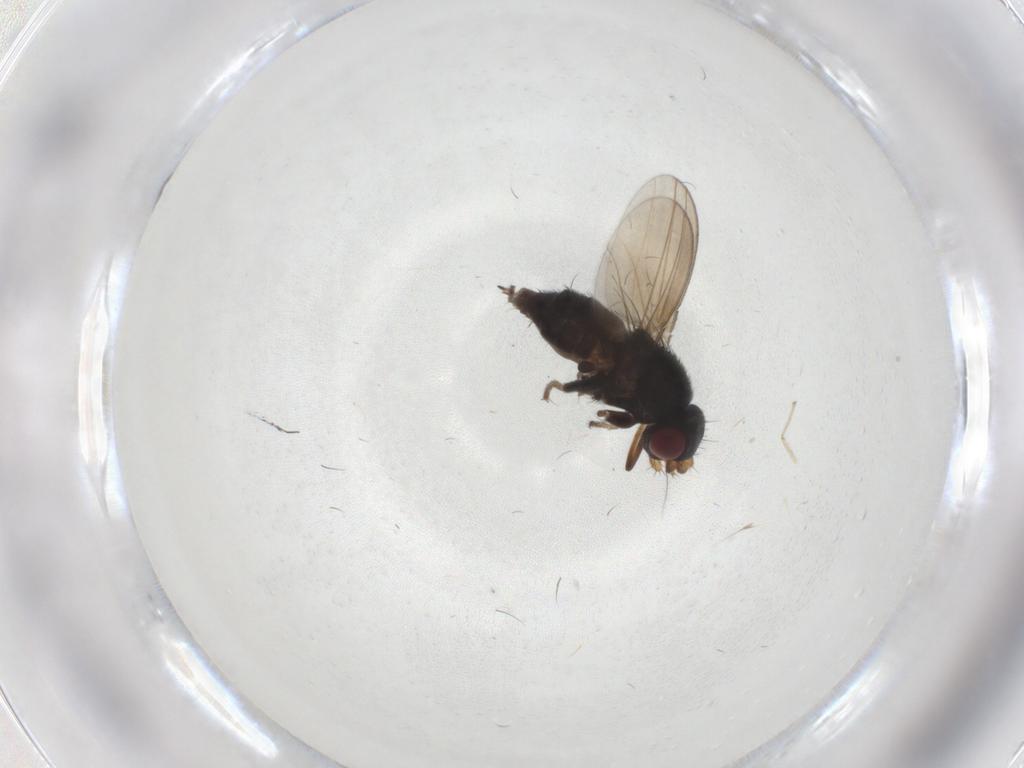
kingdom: Animalia
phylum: Arthropoda
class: Insecta
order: Diptera
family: Milichiidae
